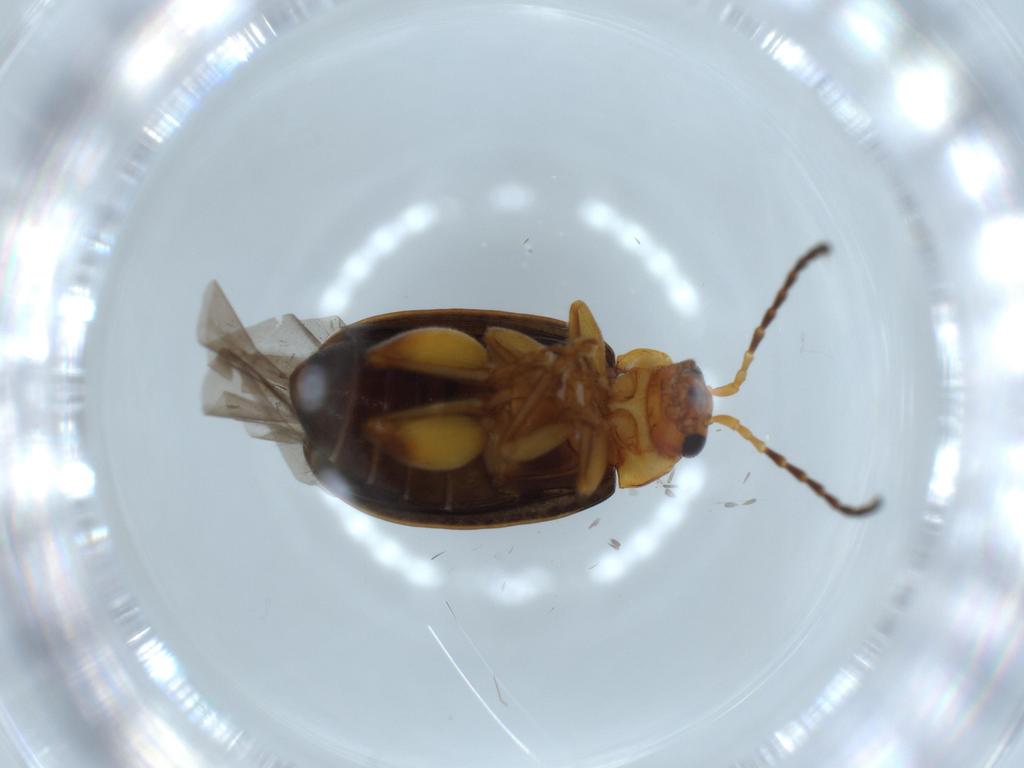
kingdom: Animalia
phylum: Arthropoda
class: Insecta
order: Coleoptera
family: Chrysomelidae
